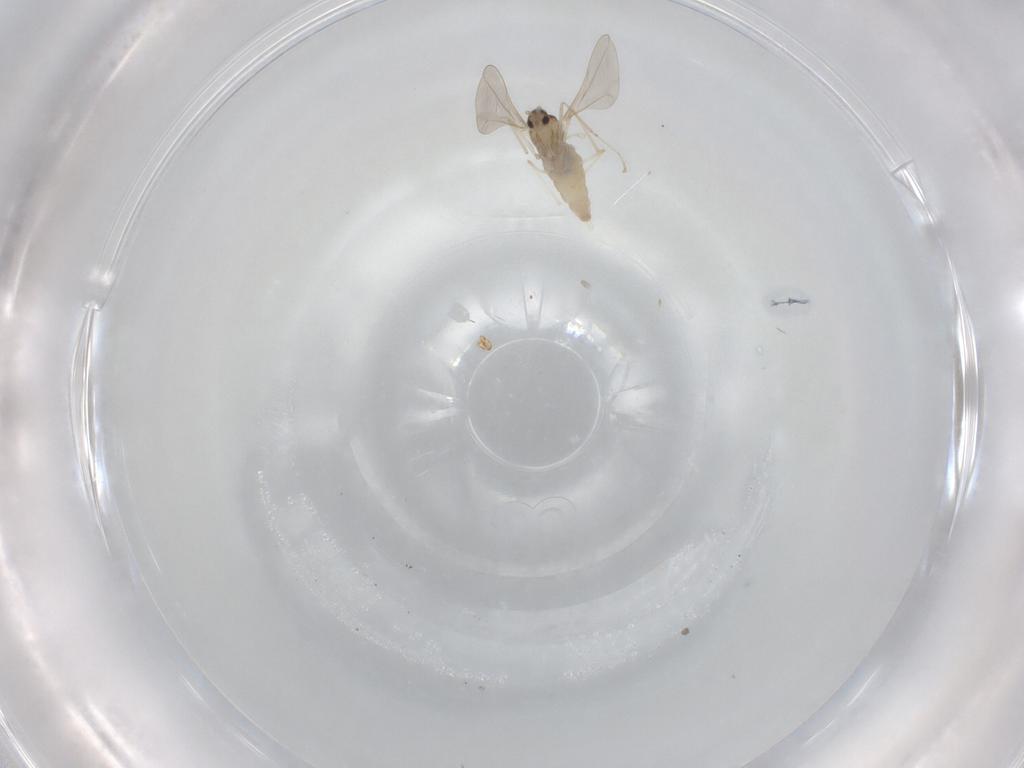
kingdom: Animalia
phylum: Arthropoda
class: Insecta
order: Diptera
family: Cecidomyiidae
